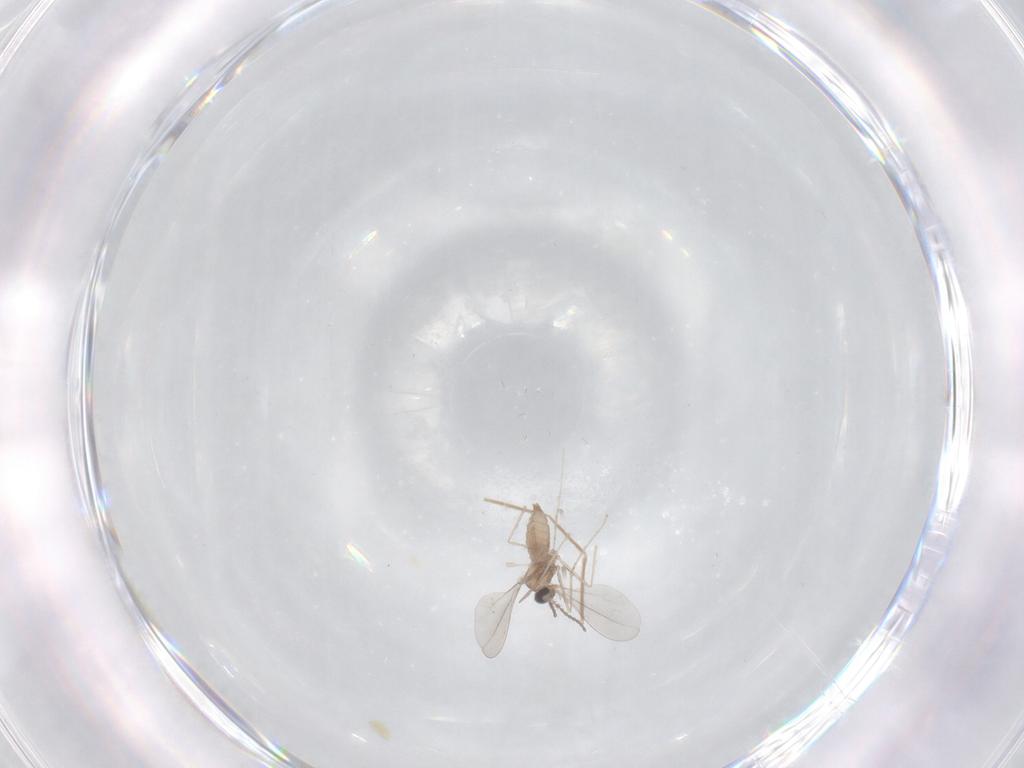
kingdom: Animalia
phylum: Arthropoda
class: Insecta
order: Diptera
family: Chironomidae
